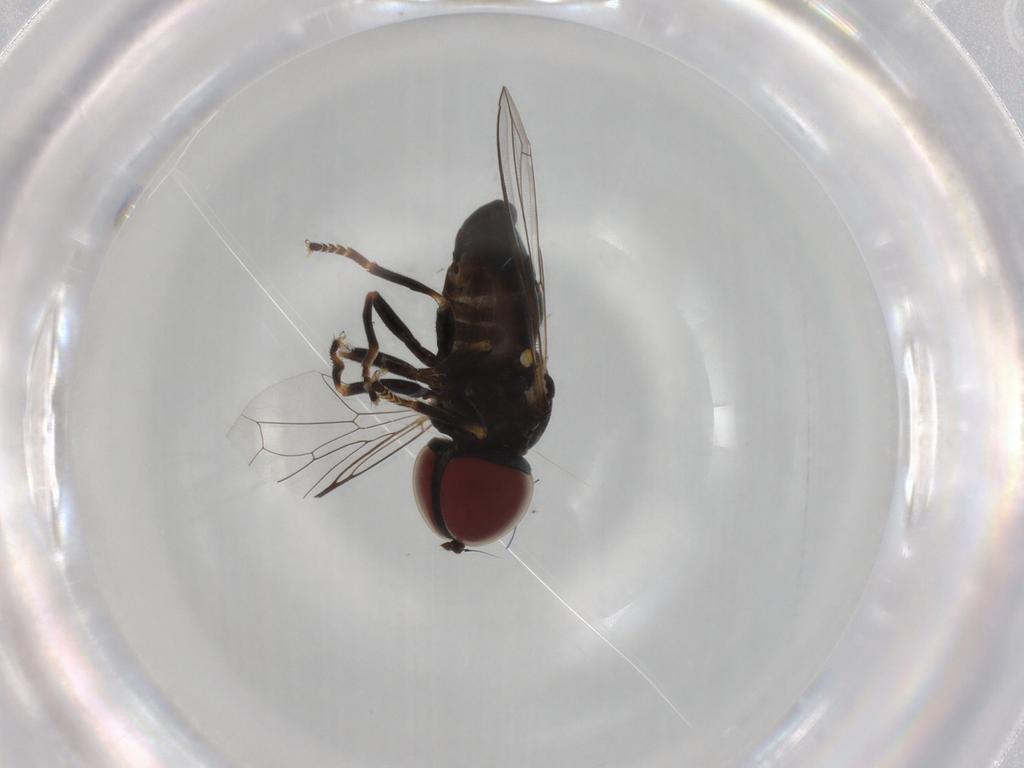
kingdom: Animalia
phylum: Arthropoda
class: Insecta
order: Diptera
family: Pipunculidae
